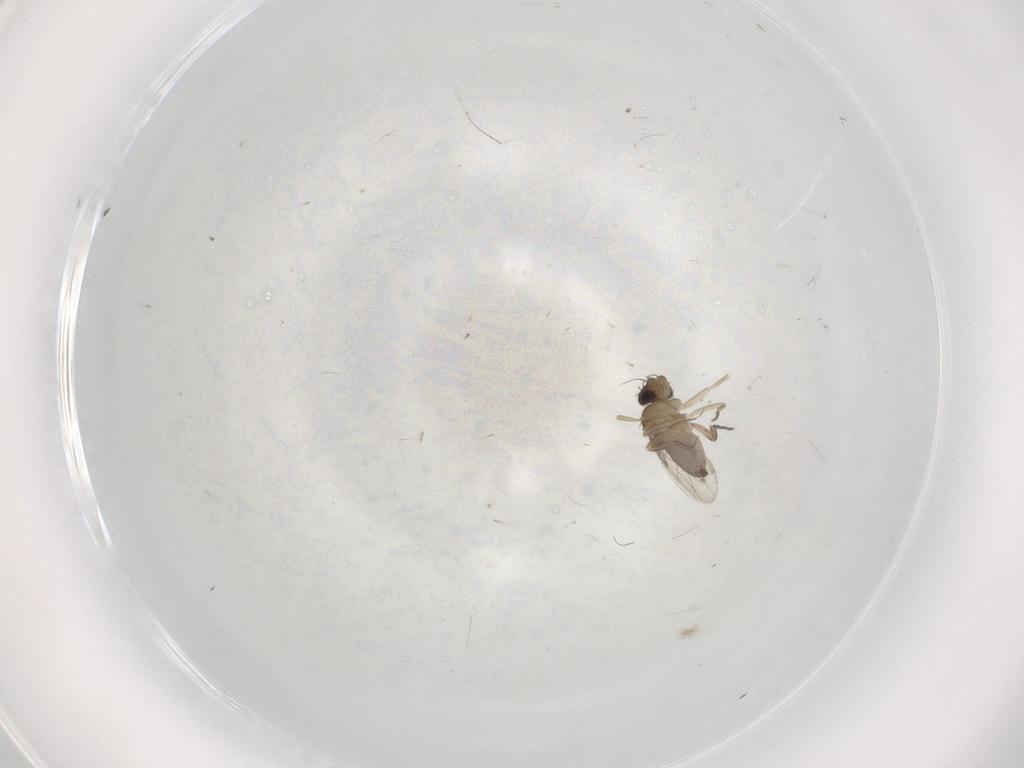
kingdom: Animalia
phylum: Arthropoda
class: Insecta
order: Diptera
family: Phoridae
